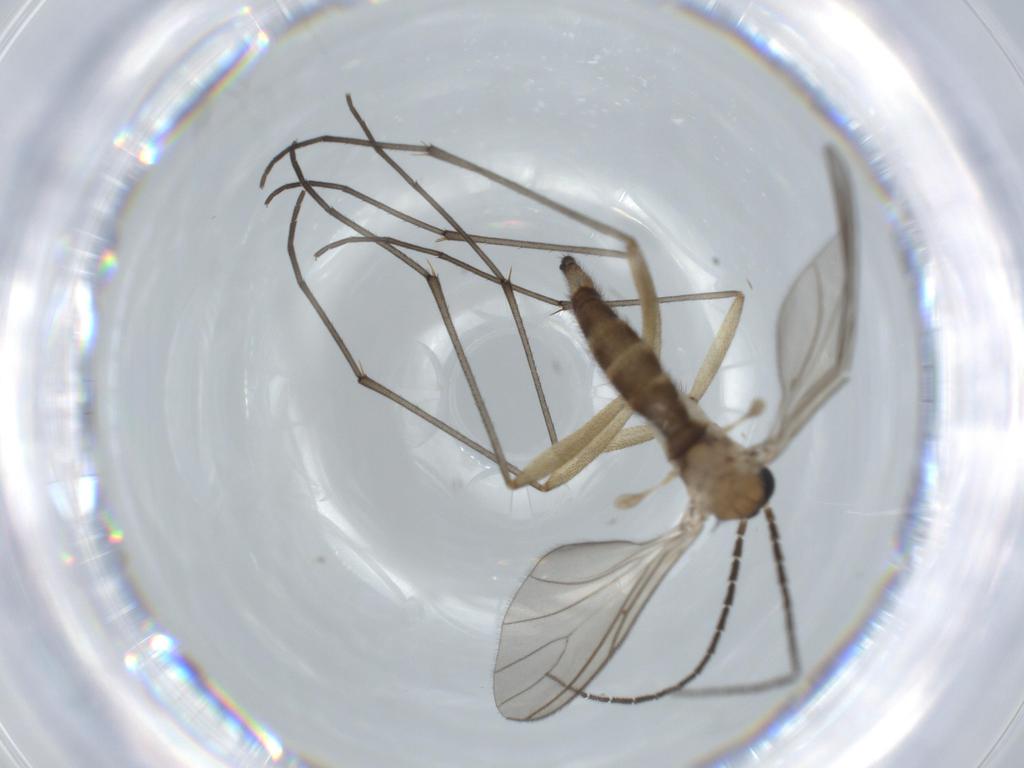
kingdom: Animalia
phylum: Arthropoda
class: Insecta
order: Diptera
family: Sciaridae
